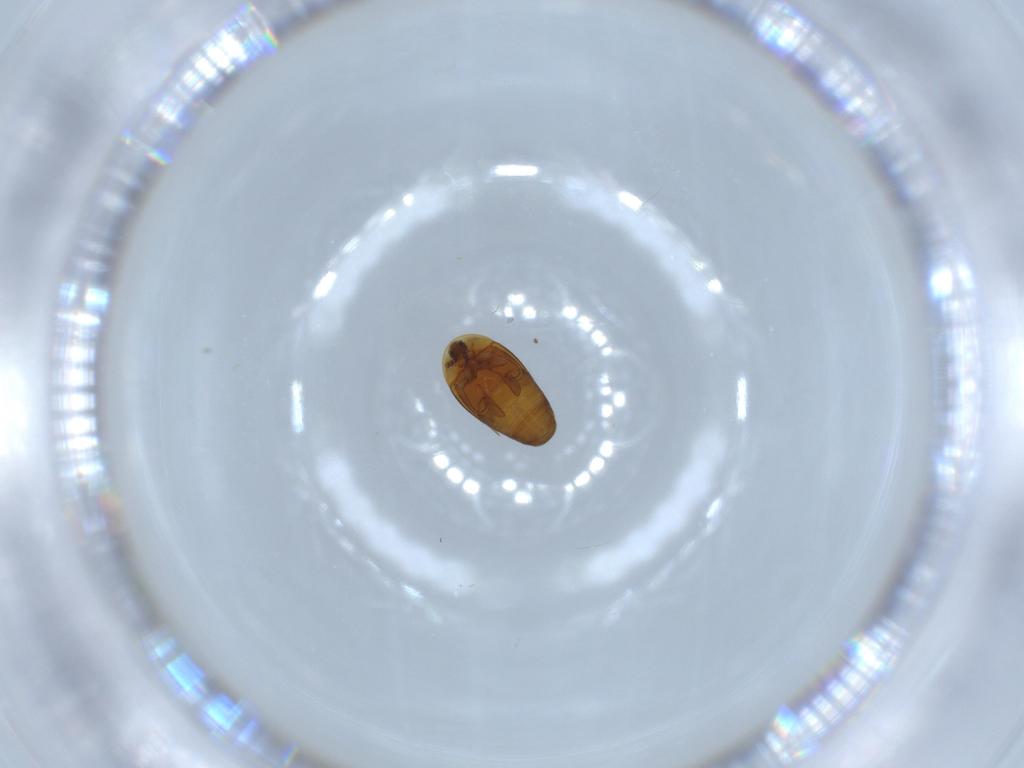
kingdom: Animalia
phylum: Arthropoda
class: Insecta
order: Coleoptera
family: Corylophidae
